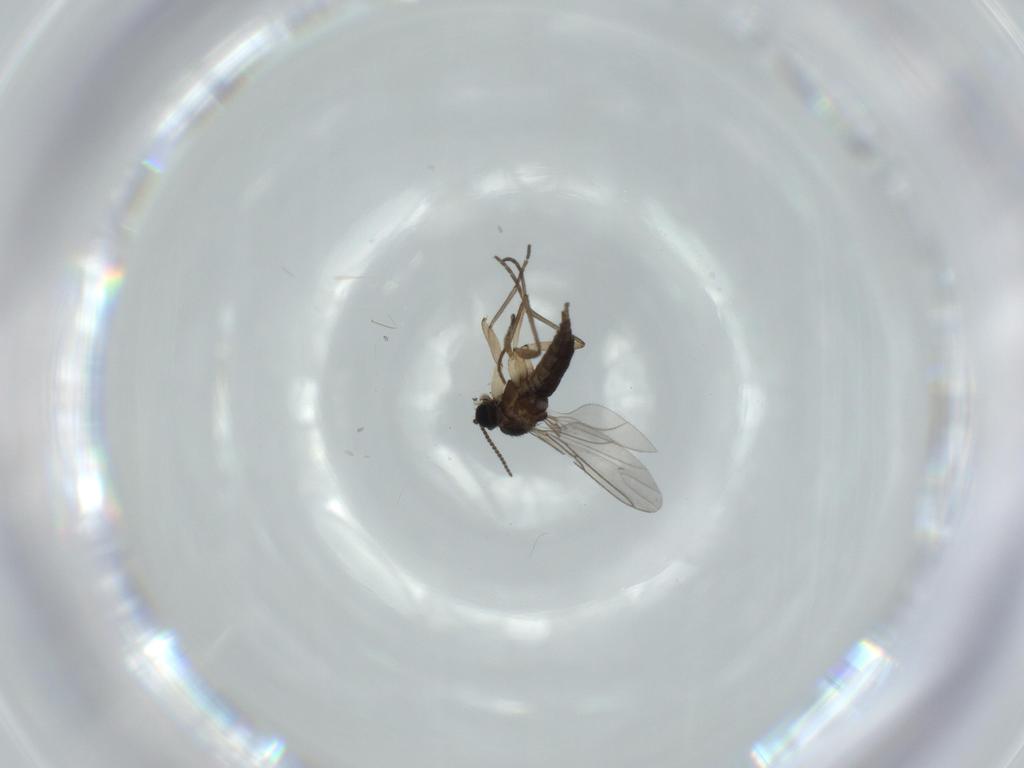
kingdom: Animalia
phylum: Arthropoda
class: Insecta
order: Diptera
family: Sciaridae
